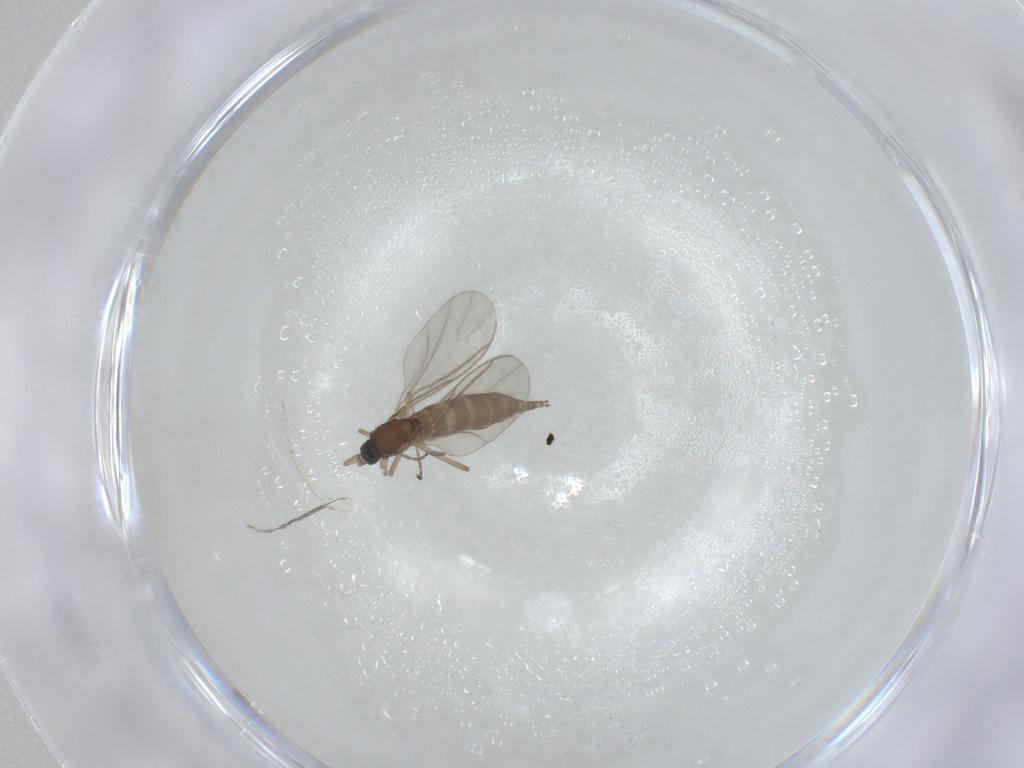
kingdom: Animalia
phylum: Arthropoda
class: Insecta
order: Diptera
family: Sciaridae
